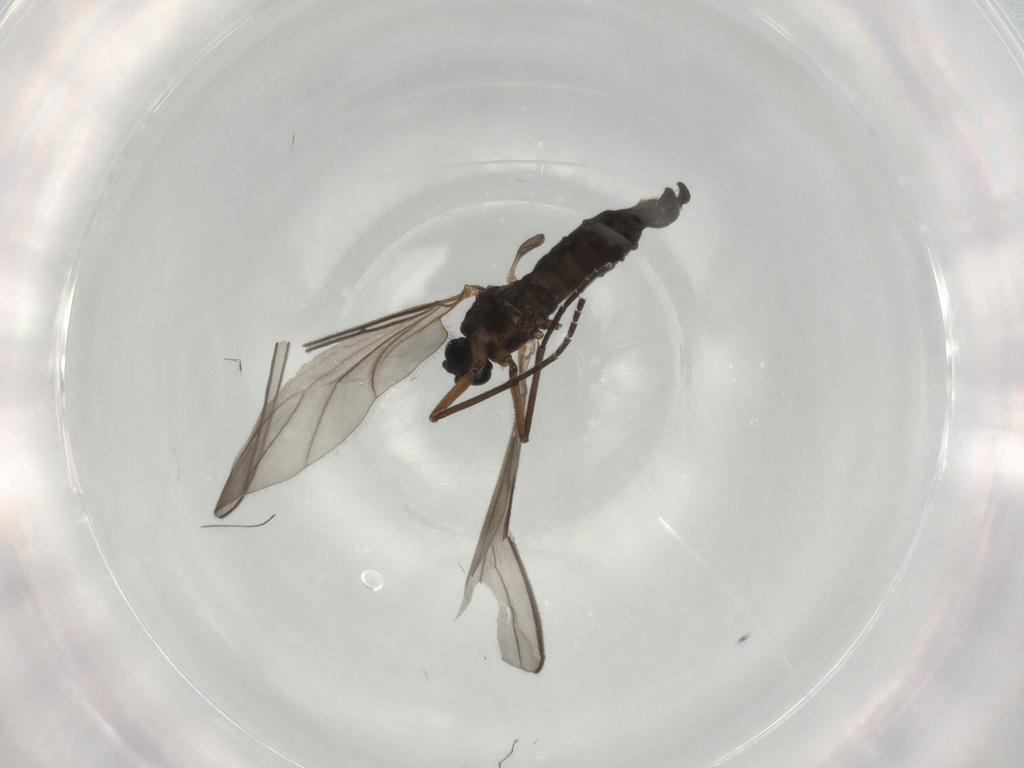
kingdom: Animalia
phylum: Arthropoda
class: Insecta
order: Diptera
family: Sciaridae
